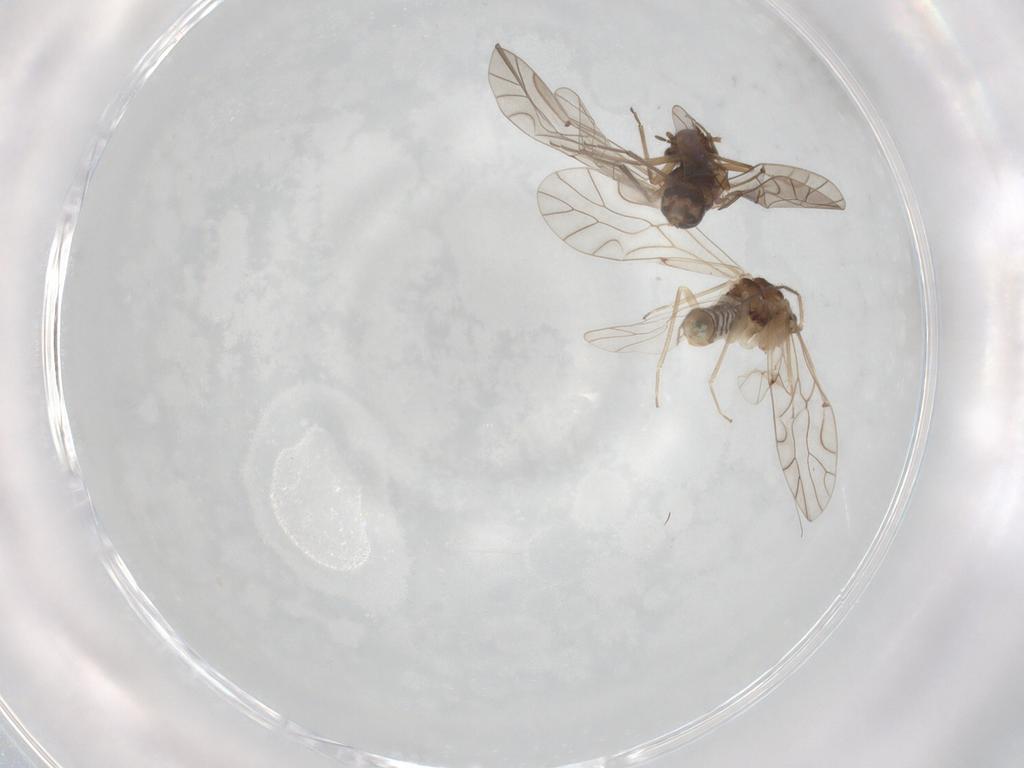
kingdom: Animalia
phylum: Arthropoda
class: Insecta
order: Psocodea
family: Lachesillidae
